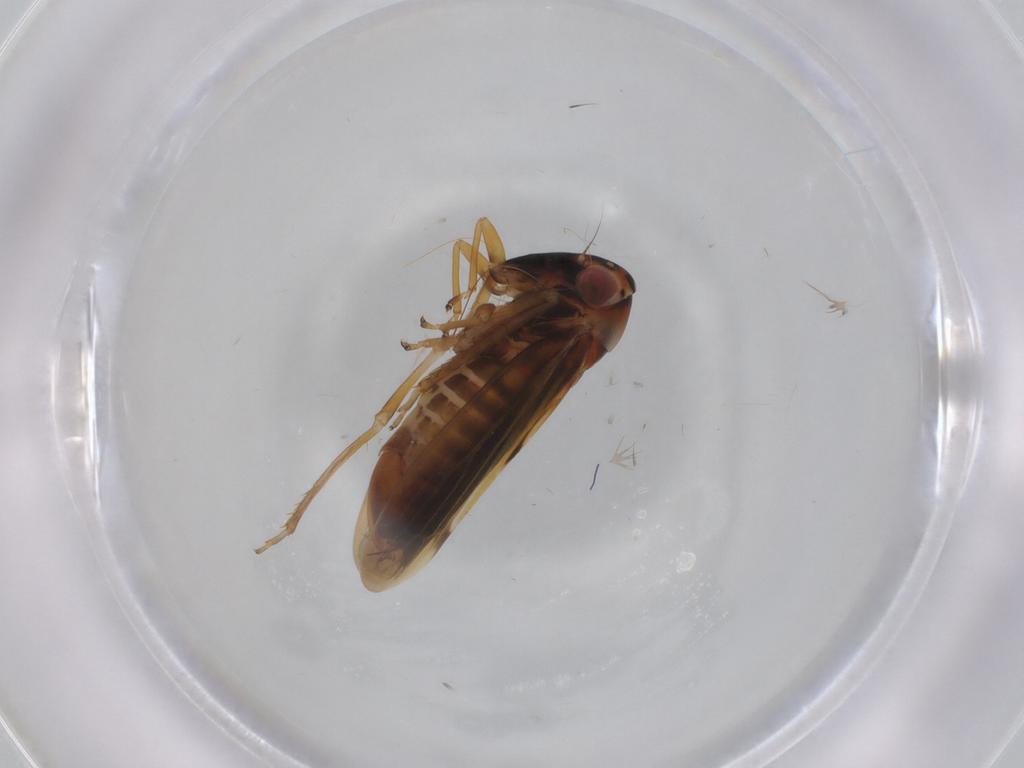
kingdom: Animalia
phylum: Arthropoda
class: Insecta
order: Hemiptera
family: Cicadellidae
